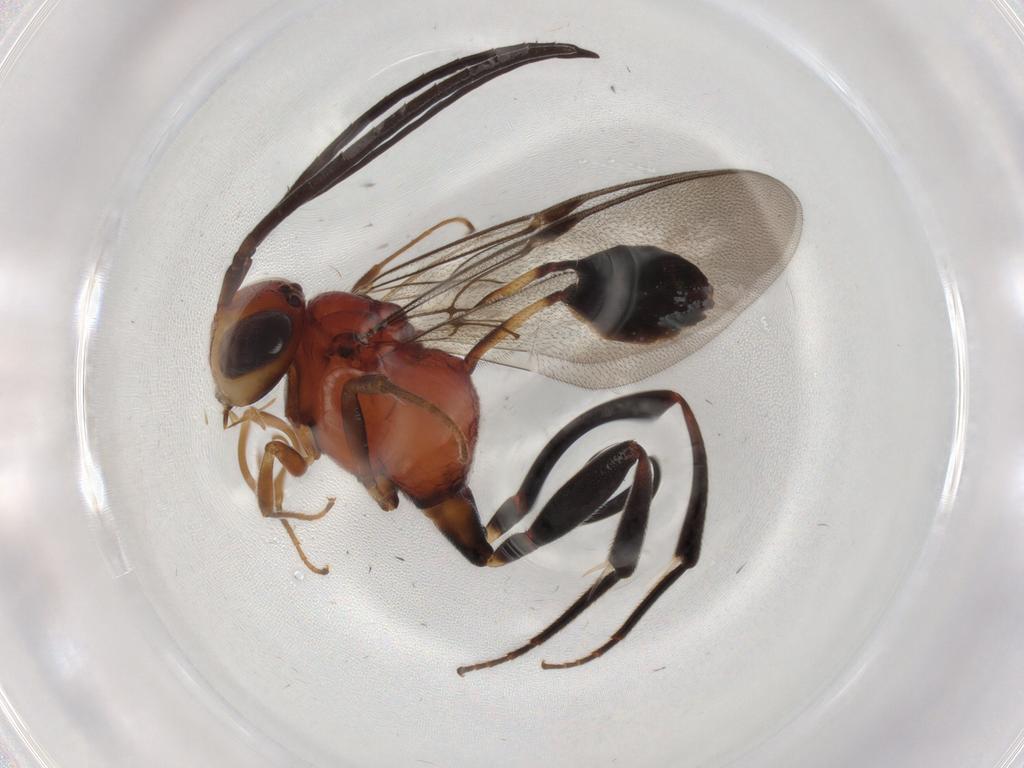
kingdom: Animalia
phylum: Arthropoda
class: Insecta
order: Hymenoptera
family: Evaniidae
